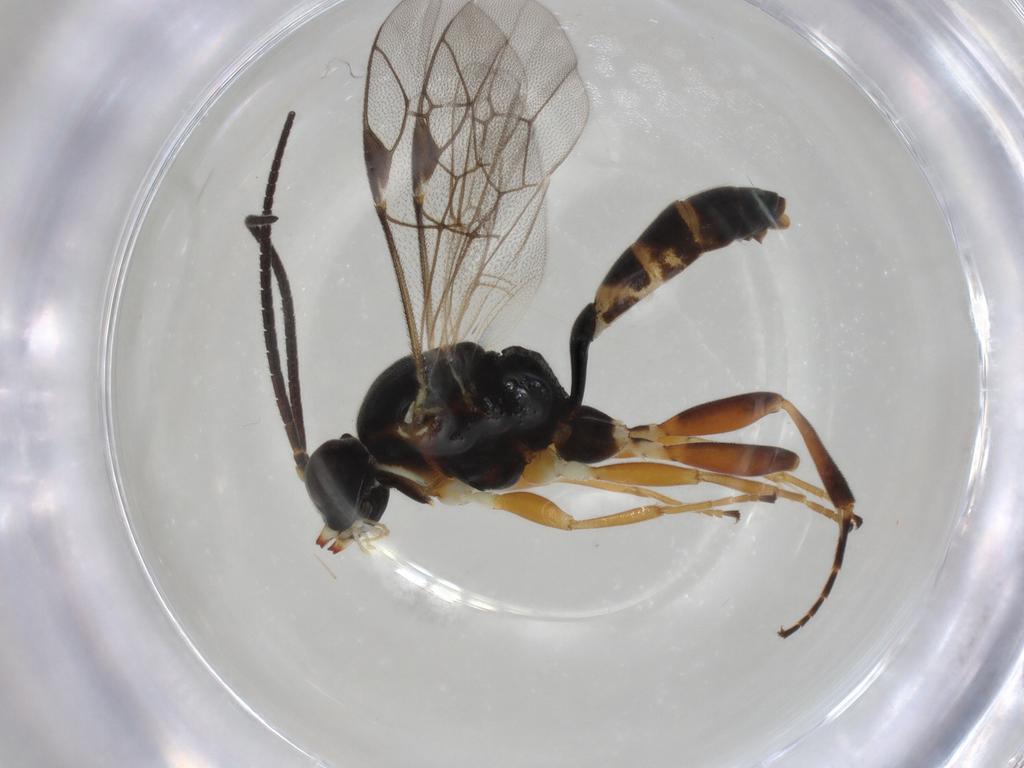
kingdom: Animalia
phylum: Arthropoda
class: Insecta
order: Hymenoptera
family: Ichneumonidae
